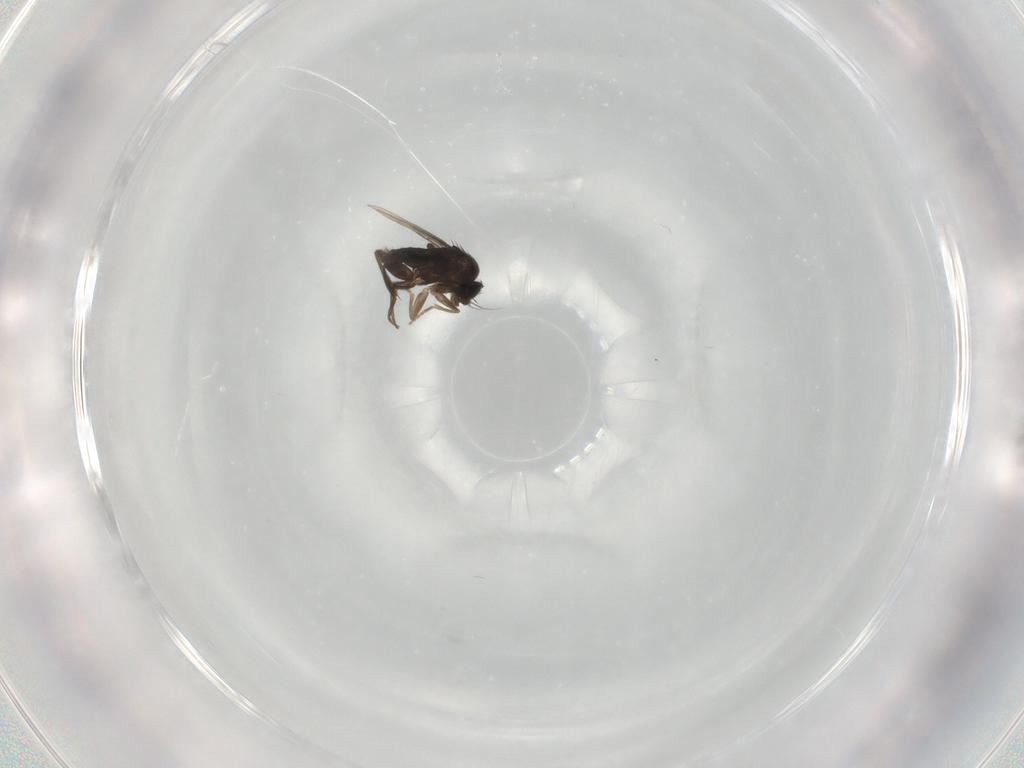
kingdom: Animalia
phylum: Arthropoda
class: Insecta
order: Diptera
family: Phoridae
